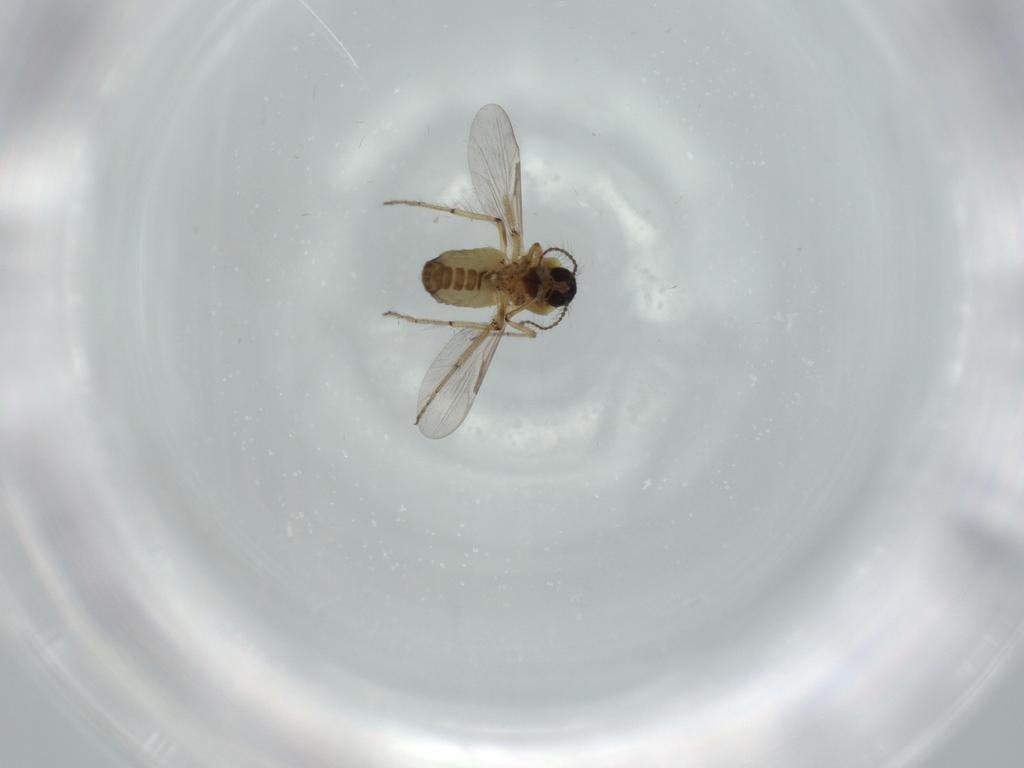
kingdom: Animalia
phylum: Arthropoda
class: Insecta
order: Diptera
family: Ceratopogonidae
